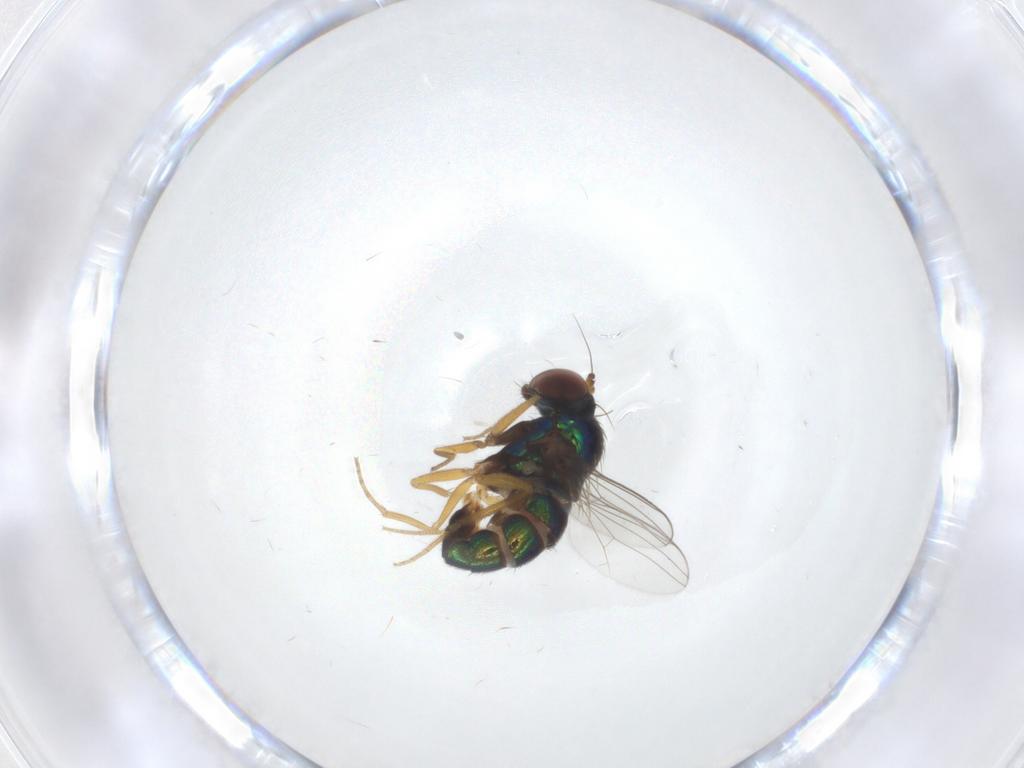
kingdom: Animalia
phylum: Arthropoda
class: Insecta
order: Diptera
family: Dolichopodidae
